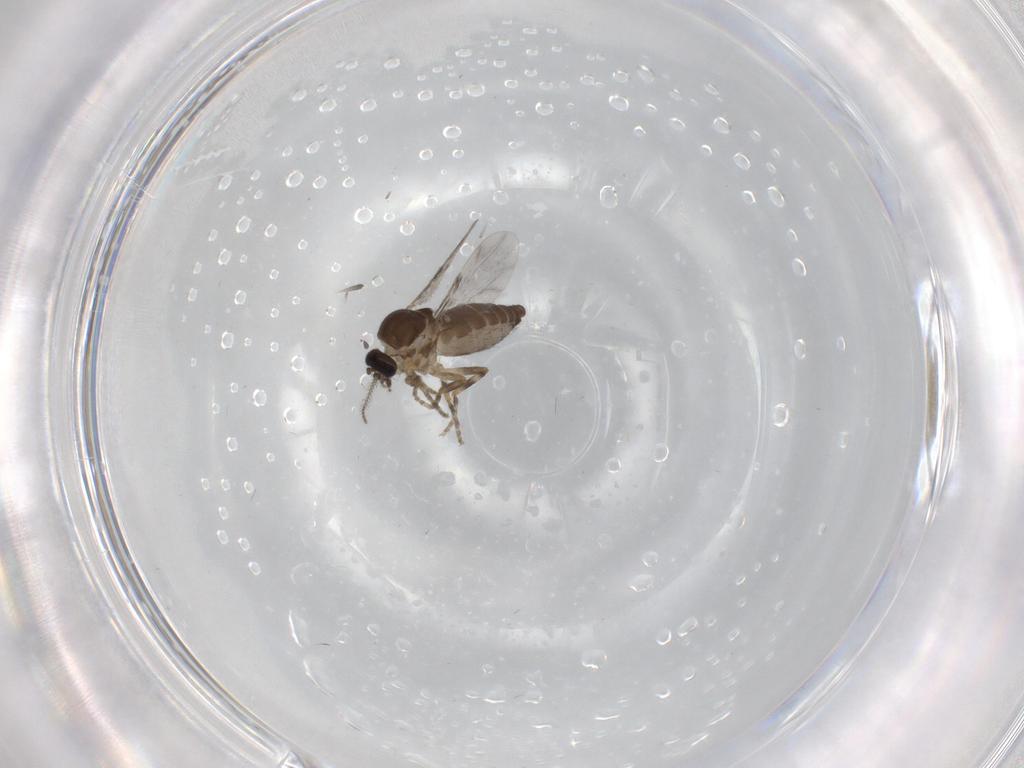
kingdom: Animalia
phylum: Arthropoda
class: Insecta
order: Diptera
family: Ceratopogonidae
